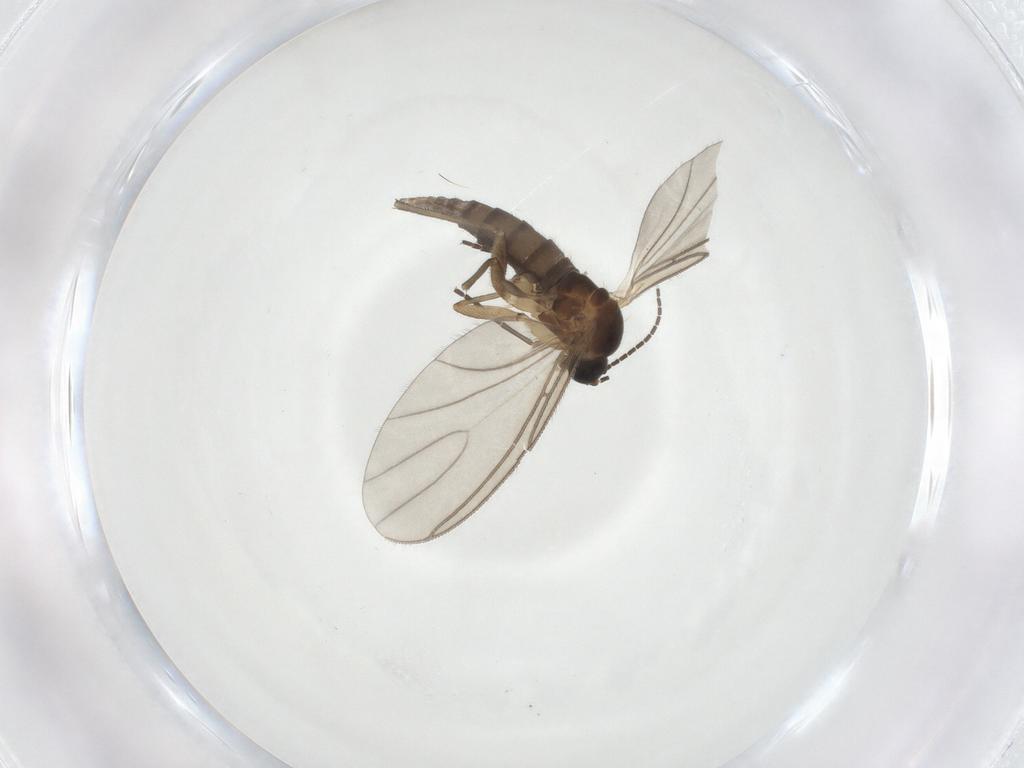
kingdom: Animalia
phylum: Arthropoda
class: Insecta
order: Diptera
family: Sciaridae
